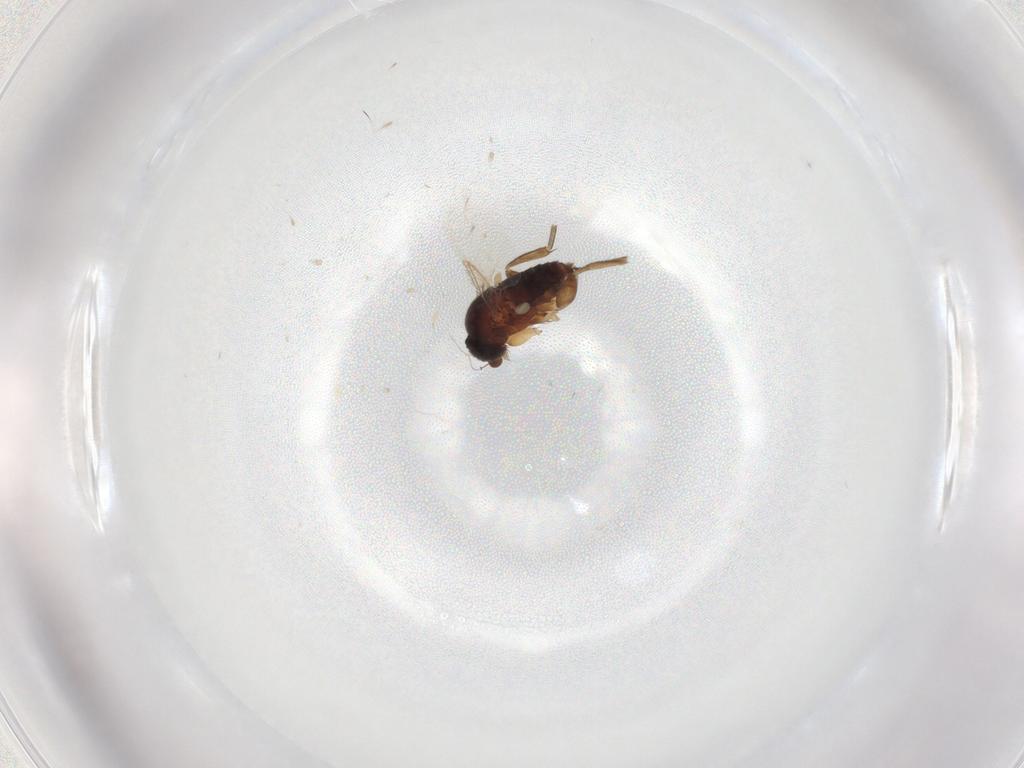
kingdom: Animalia
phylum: Arthropoda
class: Insecta
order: Diptera
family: Phoridae
